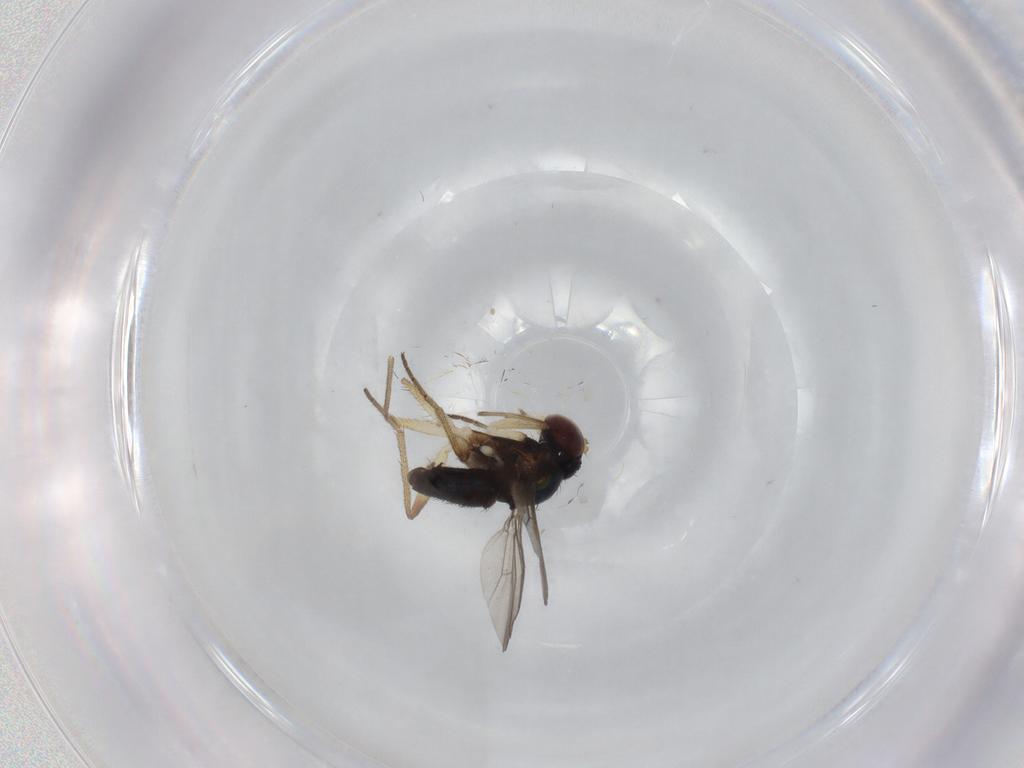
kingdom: Animalia
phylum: Arthropoda
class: Insecta
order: Diptera
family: Dolichopodidae
